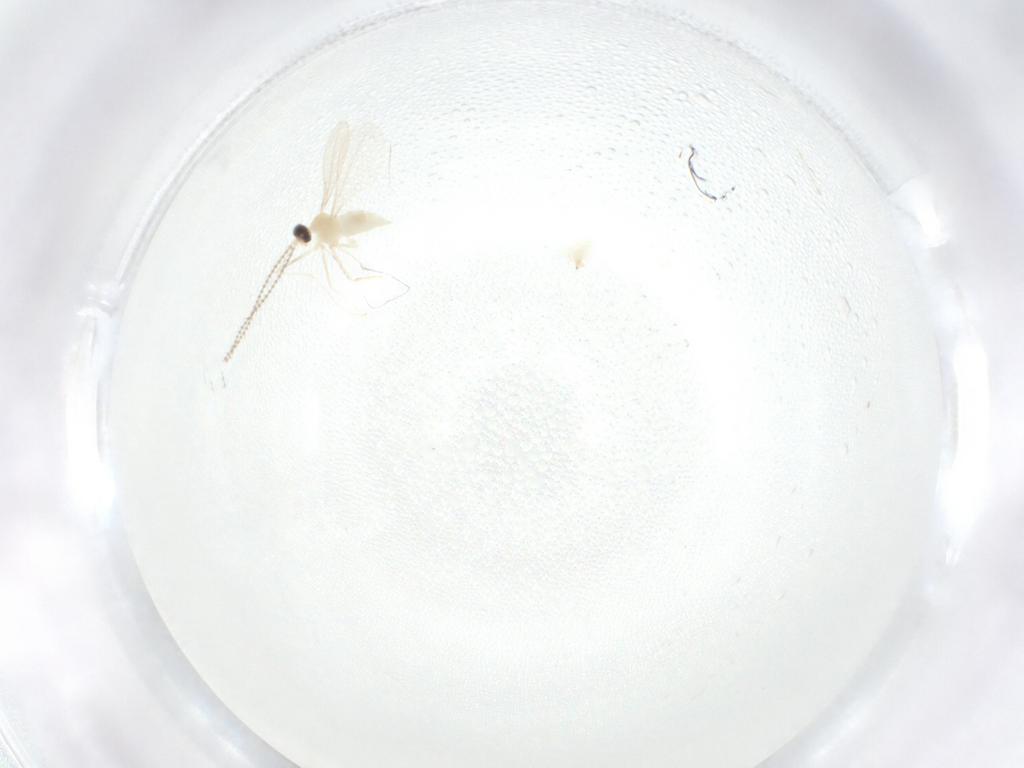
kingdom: Animalia
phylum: Arthropoda
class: Insecta
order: Diptera
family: Cecidomyiidae
